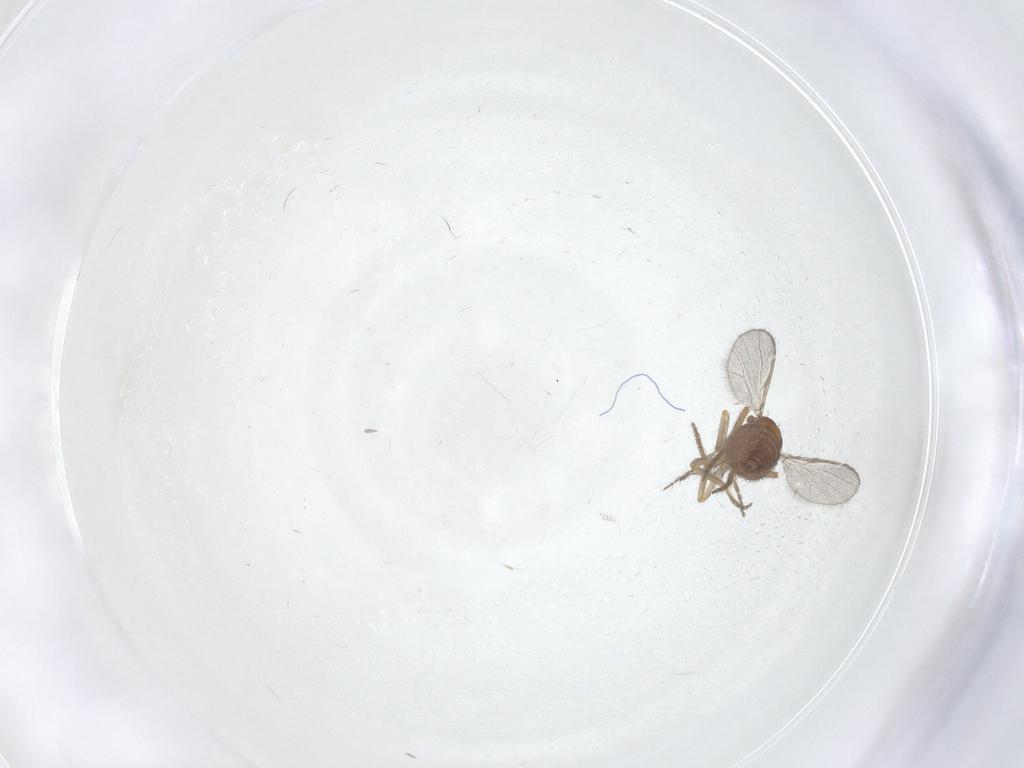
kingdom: Animalia
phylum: Arthropoda
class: Insecta
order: Diptera
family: Ceratopogonidae
